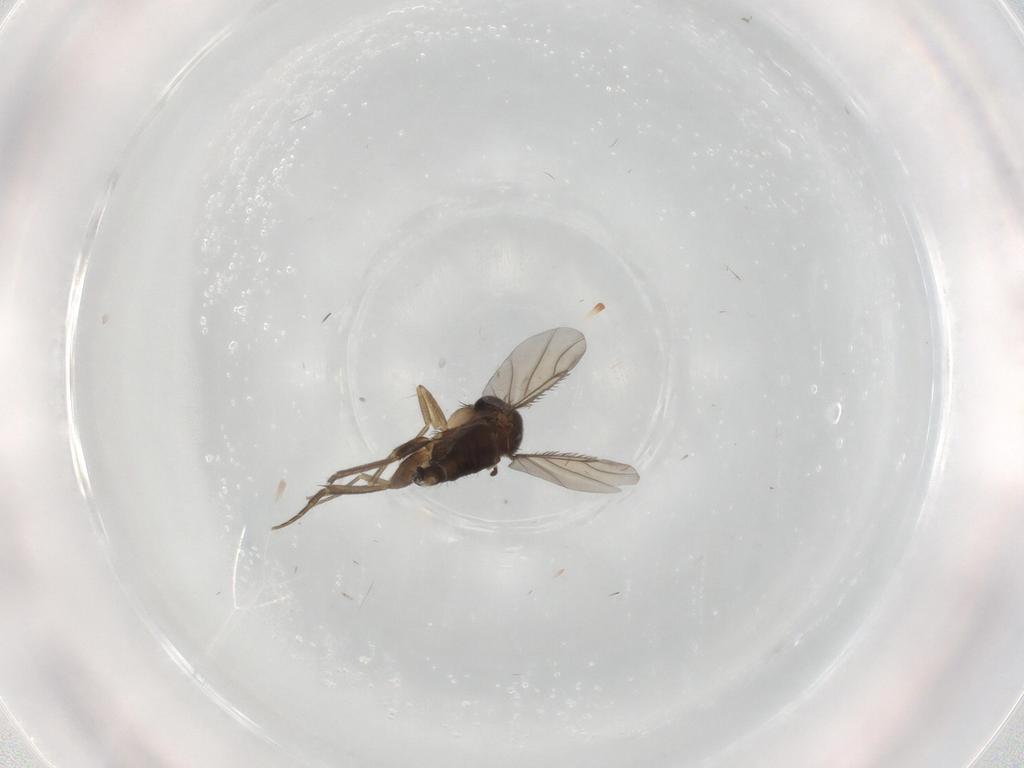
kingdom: Animalia
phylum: Arthropoda
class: Insecta
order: Diptera
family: Phoridae
